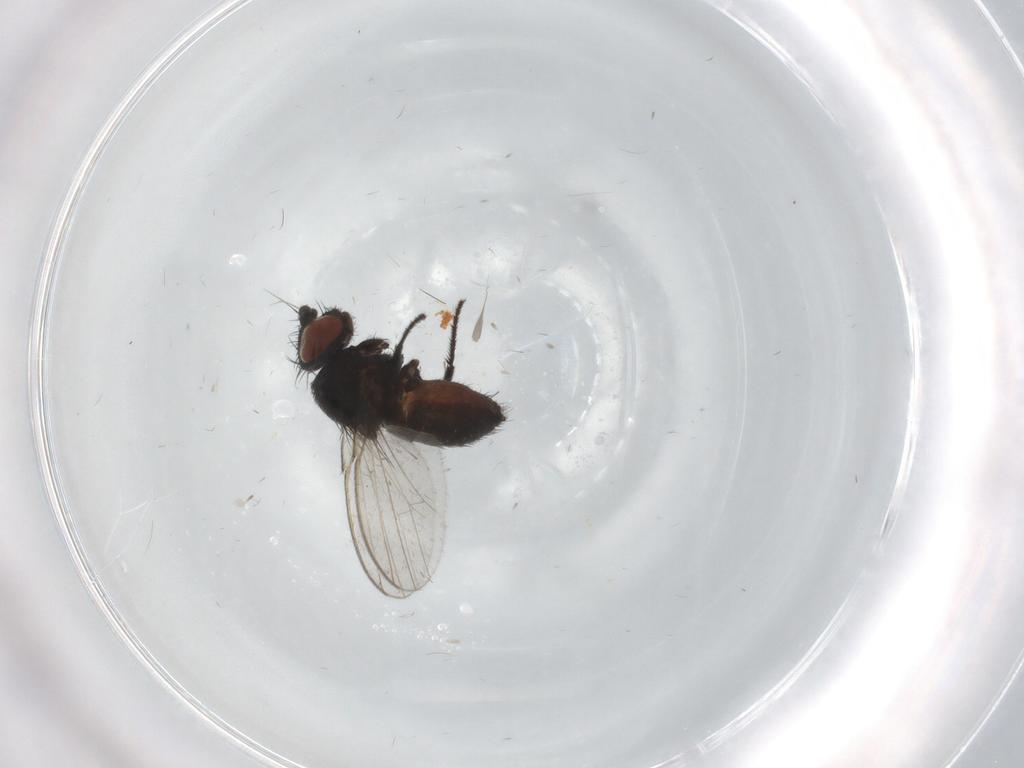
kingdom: Animalia
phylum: Arthropoda
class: Insecta
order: Diptera
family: Milichiidae
